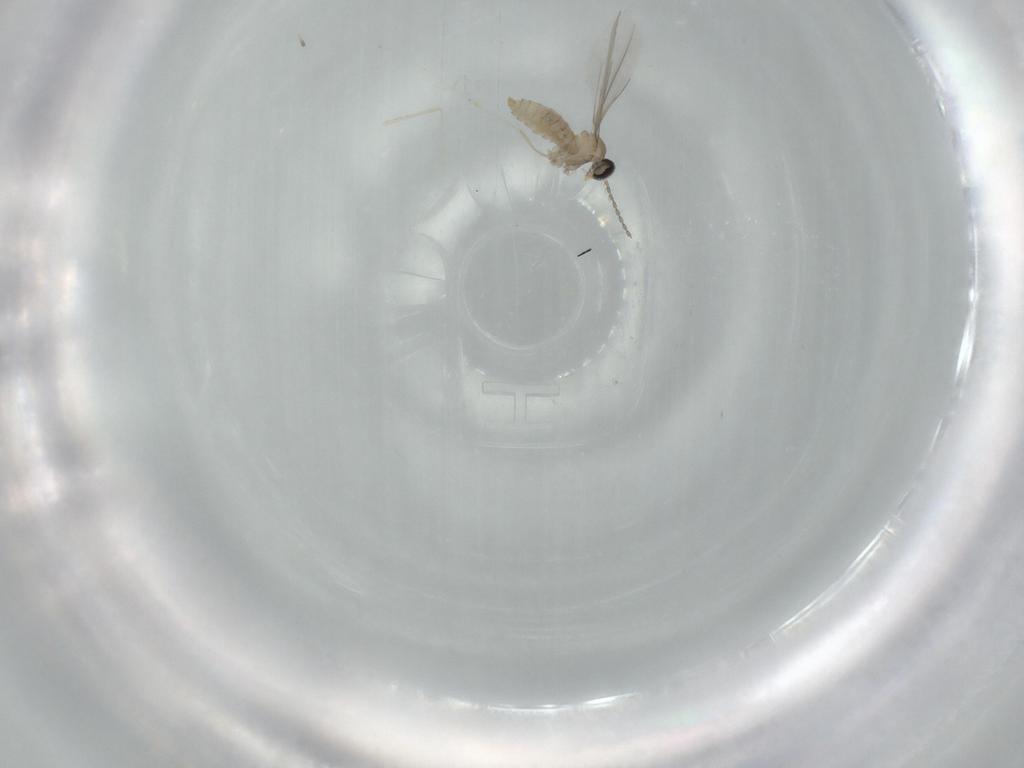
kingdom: Animalia
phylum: Arthropoda
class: Insecta
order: Diptera
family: Cecidomyiidae
